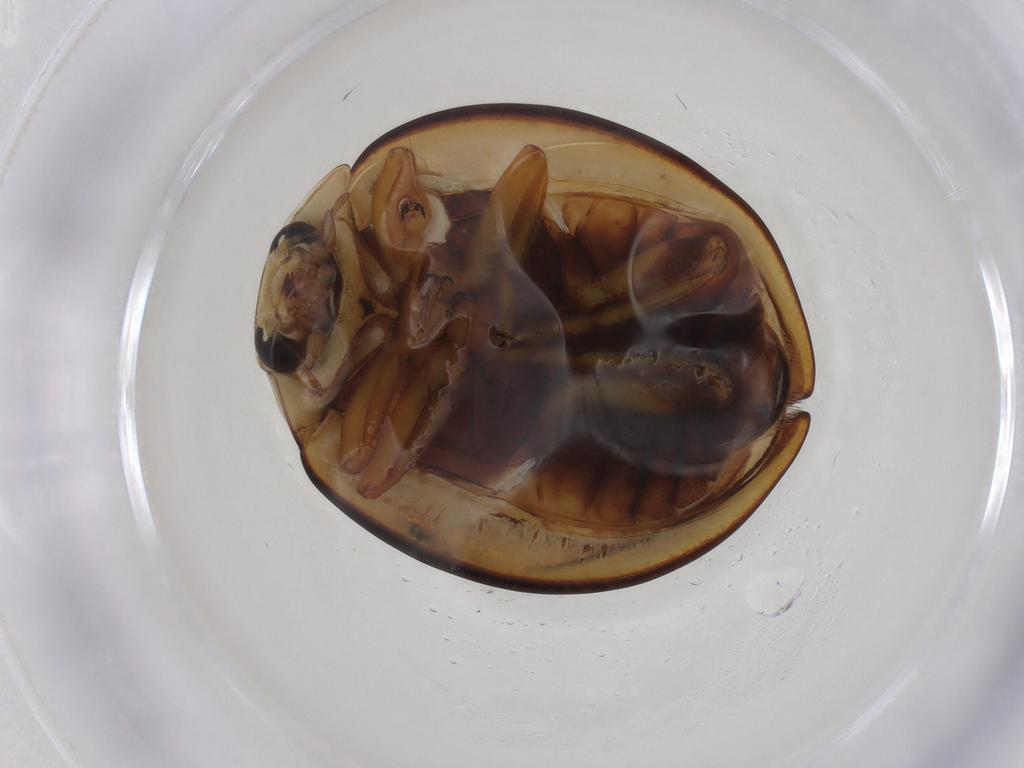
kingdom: Animalia
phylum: Arthropoda
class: Insecta
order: Coleoptera
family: Coccinellidae
